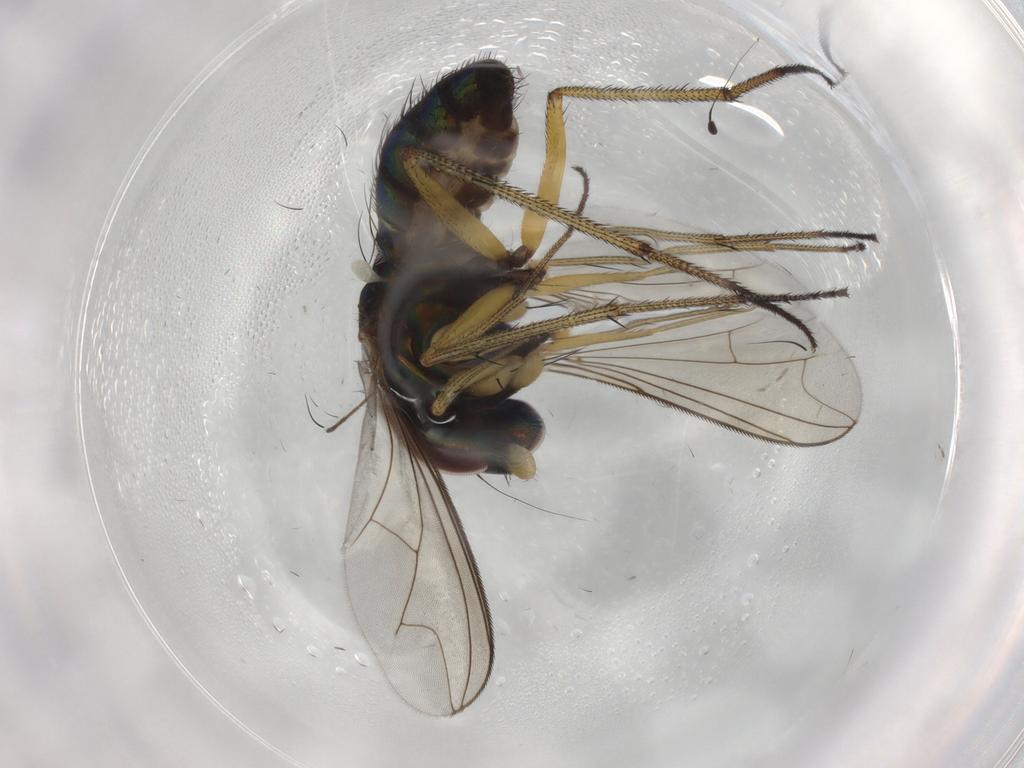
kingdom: Animalia
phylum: Arthropoda
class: Insecta
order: Diptera
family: Dolichopodidae
